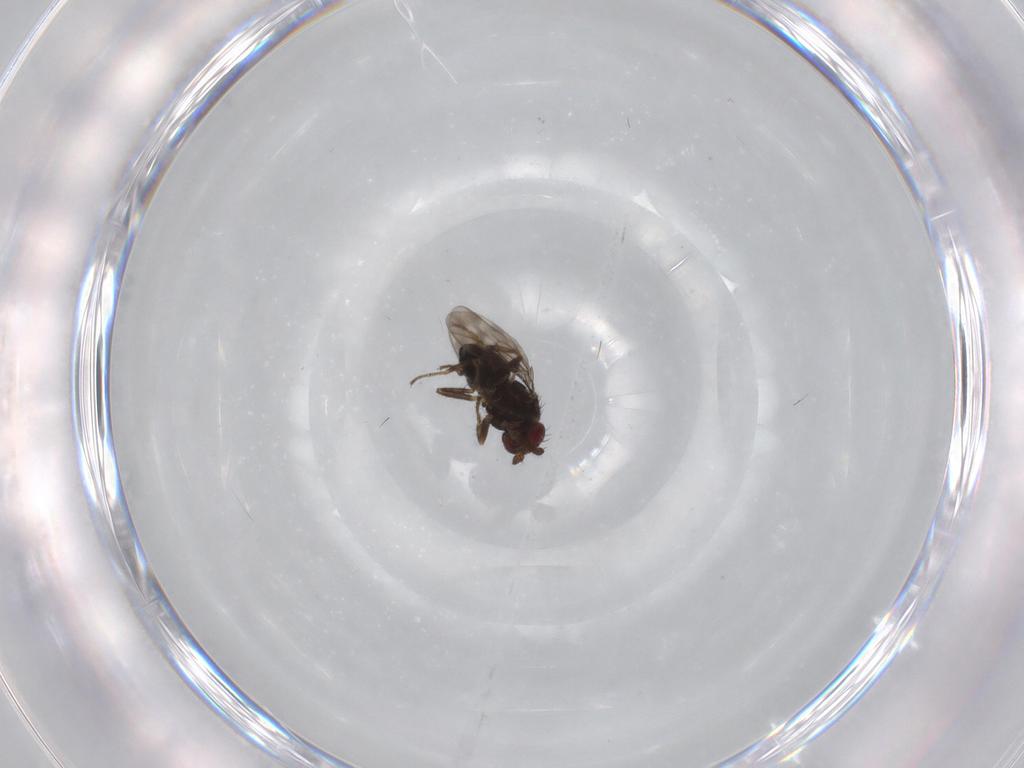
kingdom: Animalia
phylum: Arthropoda
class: Insecta
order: Diptera
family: Sphaeroceridae
